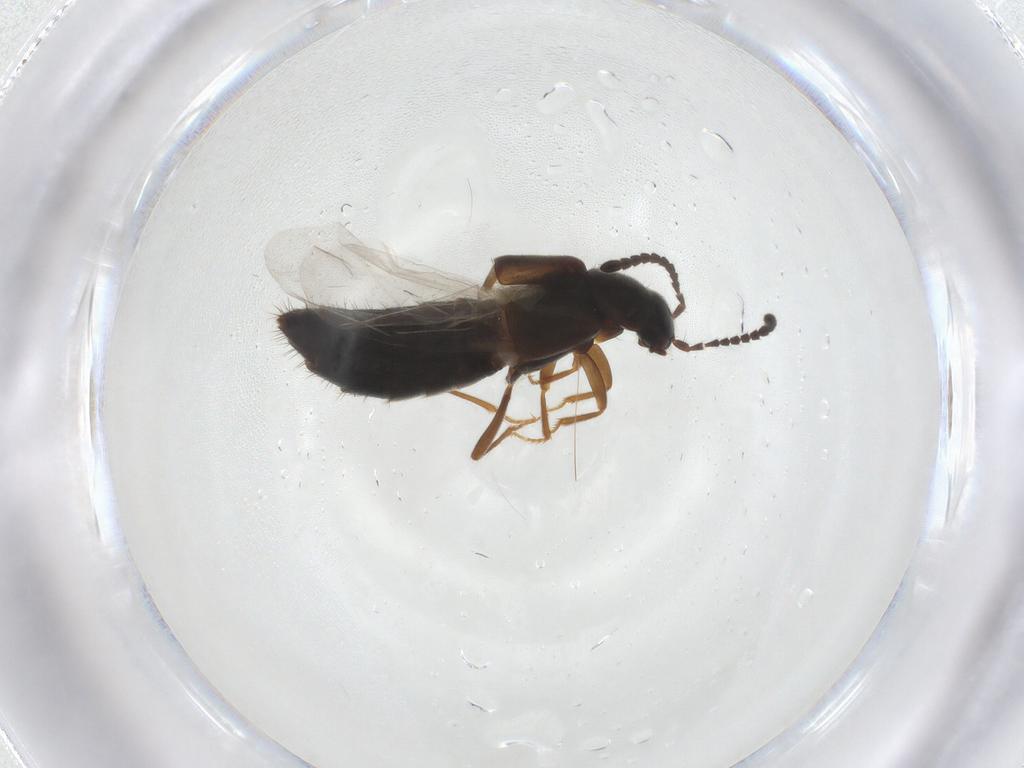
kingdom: Animalia
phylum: Arthropoda
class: Insecta
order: Coleoptera
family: Staphylinidae
